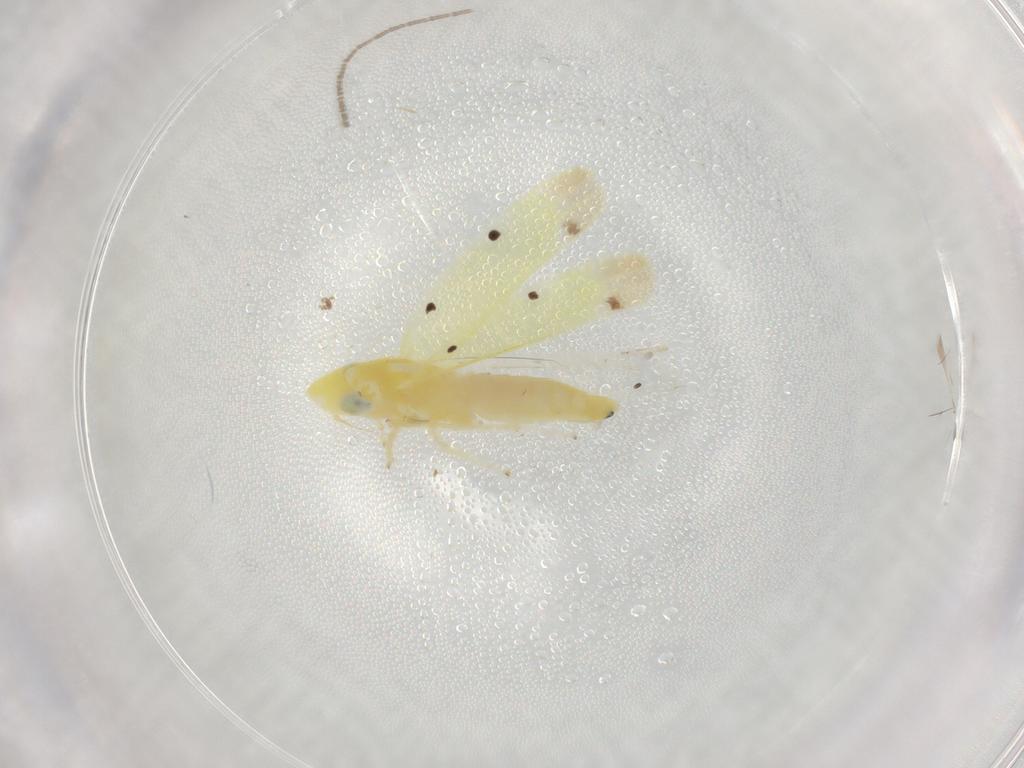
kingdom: Animalia
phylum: Arthropoda
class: Insecta
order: Hemiptera
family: Cicadellidae
